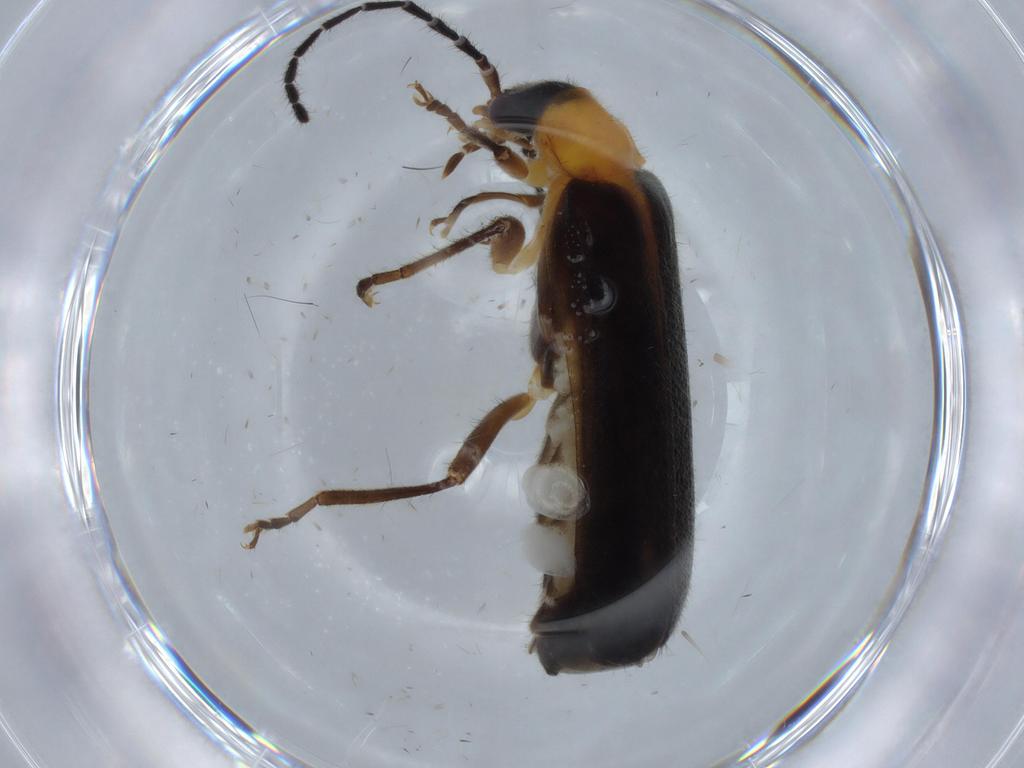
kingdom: Animalia
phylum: Arthropoda
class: Insecta
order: Coleoptera
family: Cantharidae
